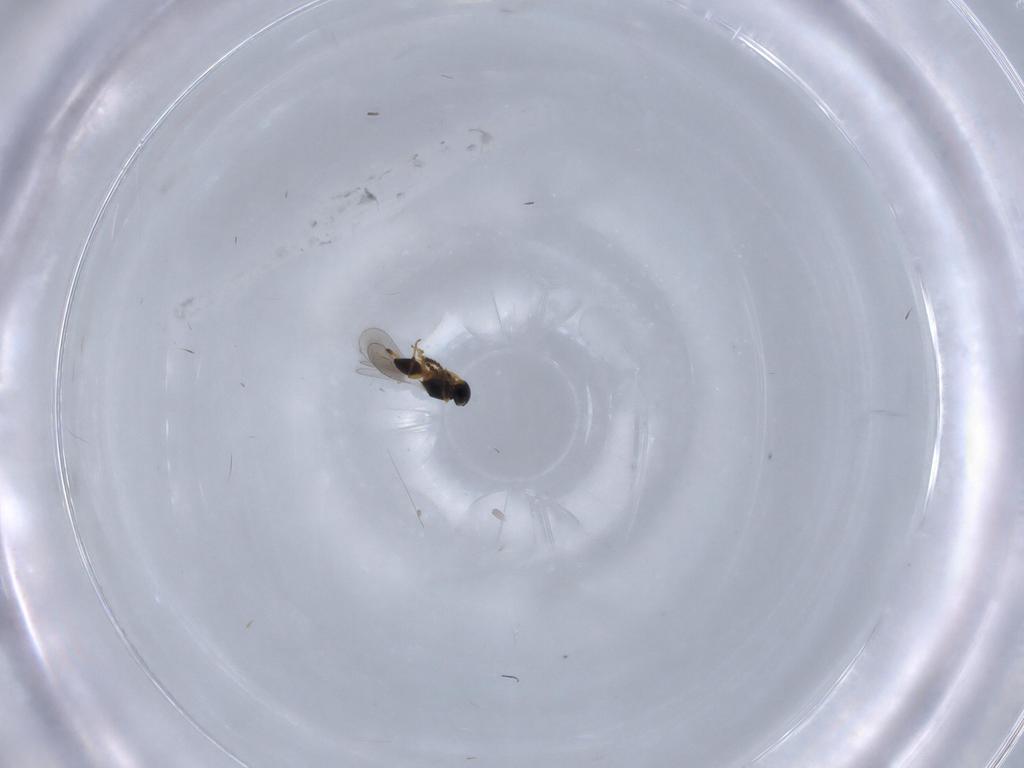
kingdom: Animalia
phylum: Arthropoda
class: Insecta
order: Hymenoptera
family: Platygastridae
